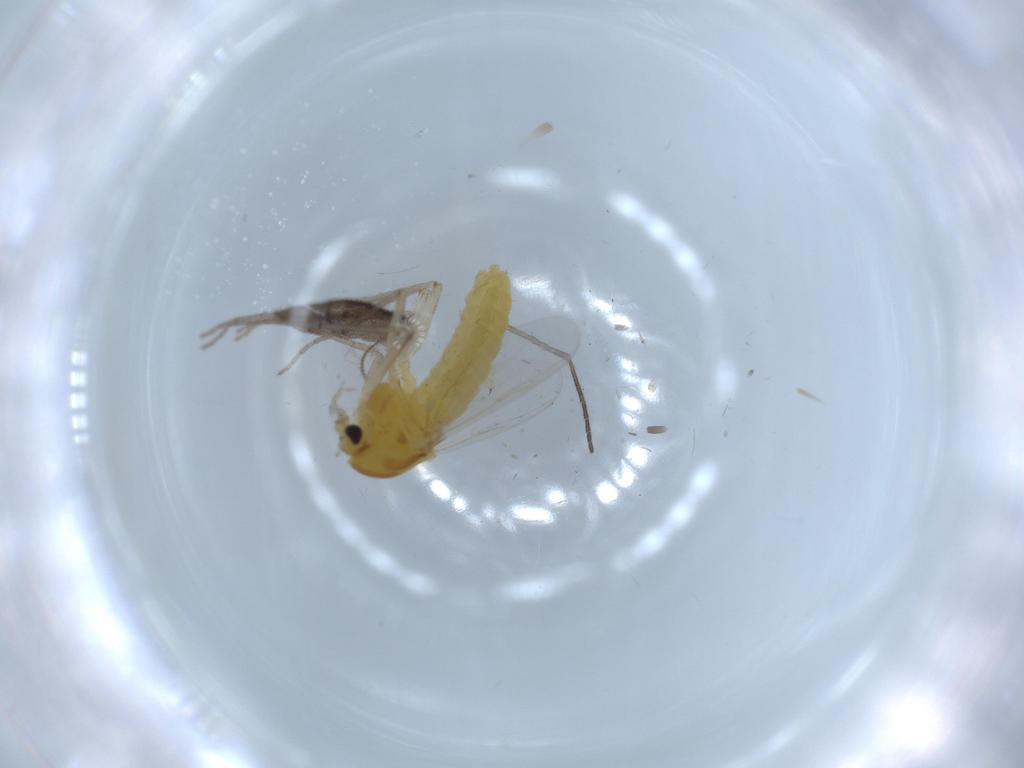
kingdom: Animalia
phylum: Arthropoda
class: Insecta
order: Diptera
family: Chironomidae
